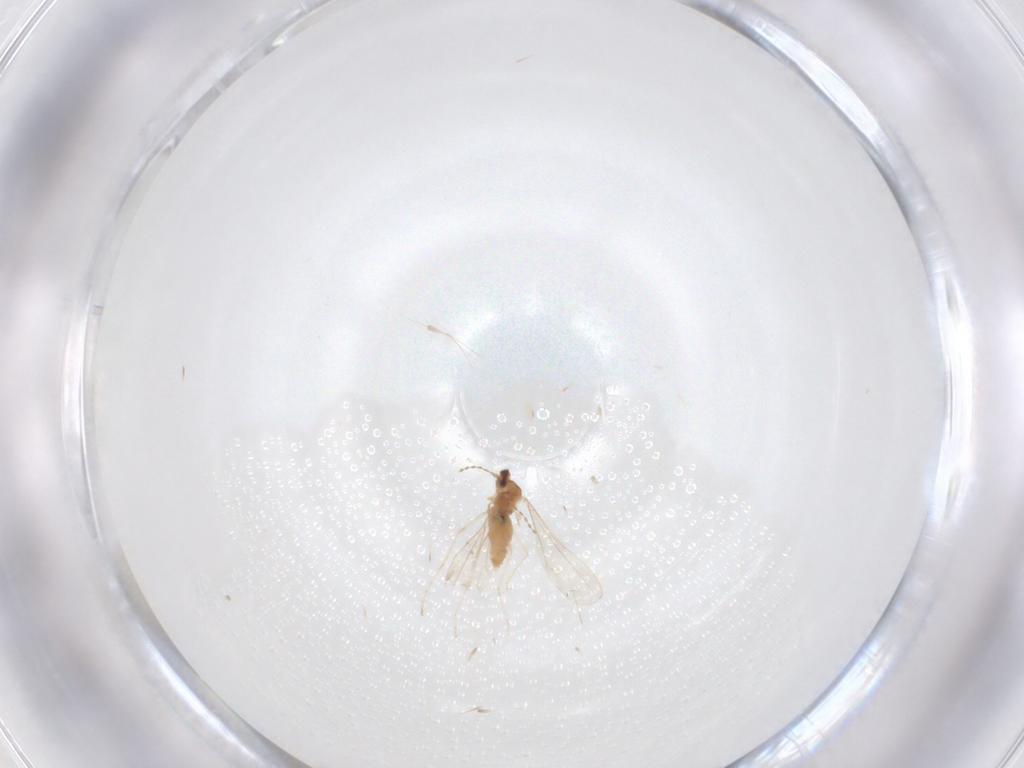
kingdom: Animalia
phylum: Arthropoda
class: Insecta
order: Diptera
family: Cecidomyiidae
